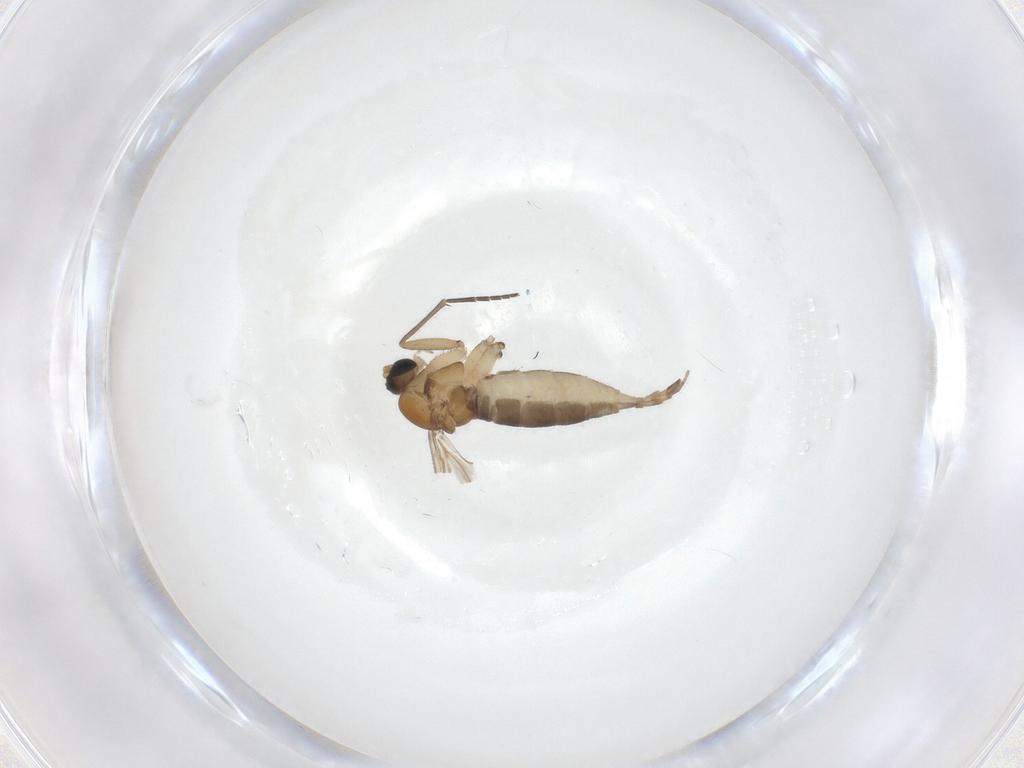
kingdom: Animalia
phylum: Arthropoda
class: Insecta
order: Diptera
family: Sciaridae
